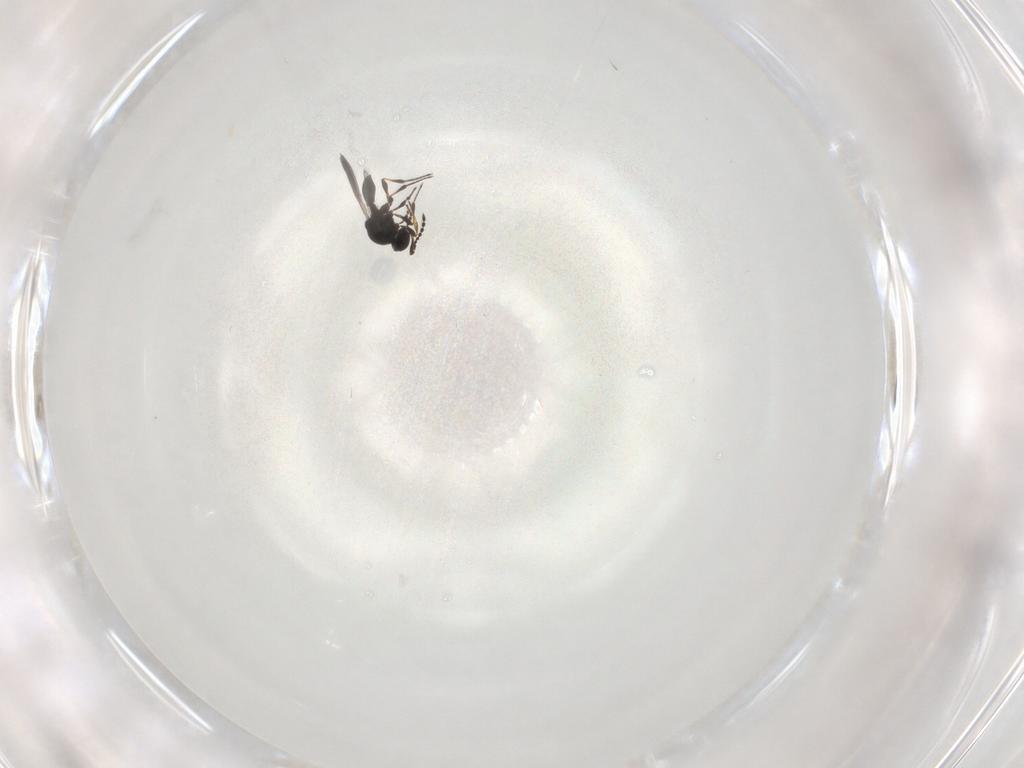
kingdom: Animalia
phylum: Arthropoda
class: Insecta
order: Hymenoptera
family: Platygastridae
